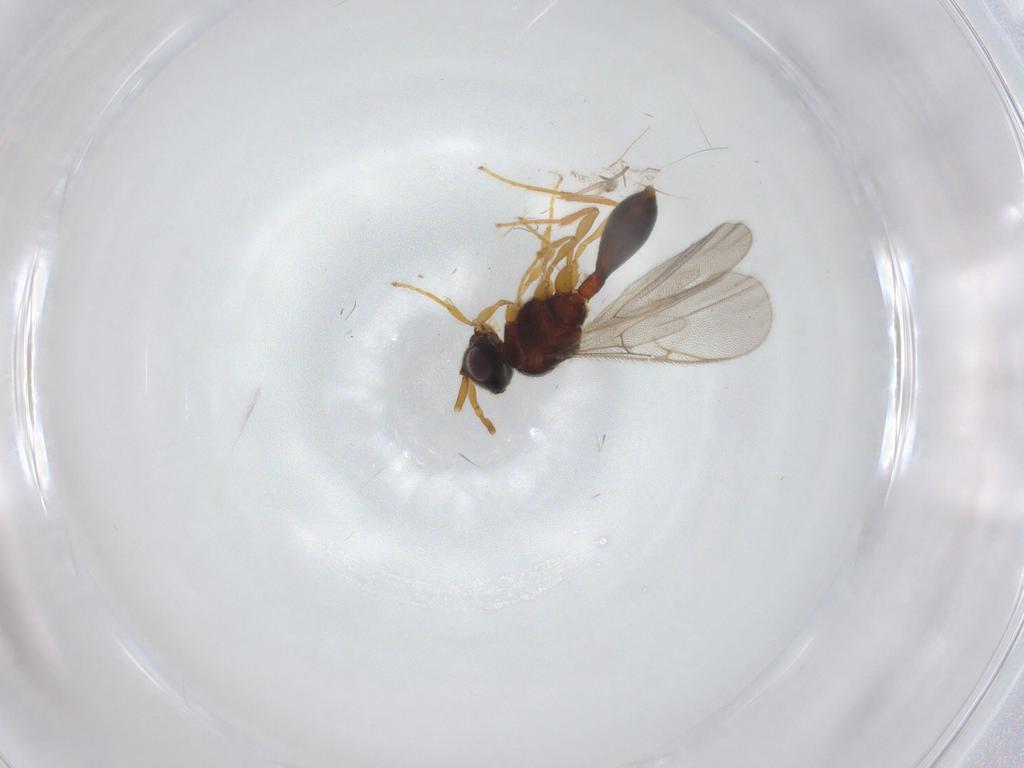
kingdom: Animalia
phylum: Arthropoda
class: Insecta
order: Hymenoptera
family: Diapriidae
